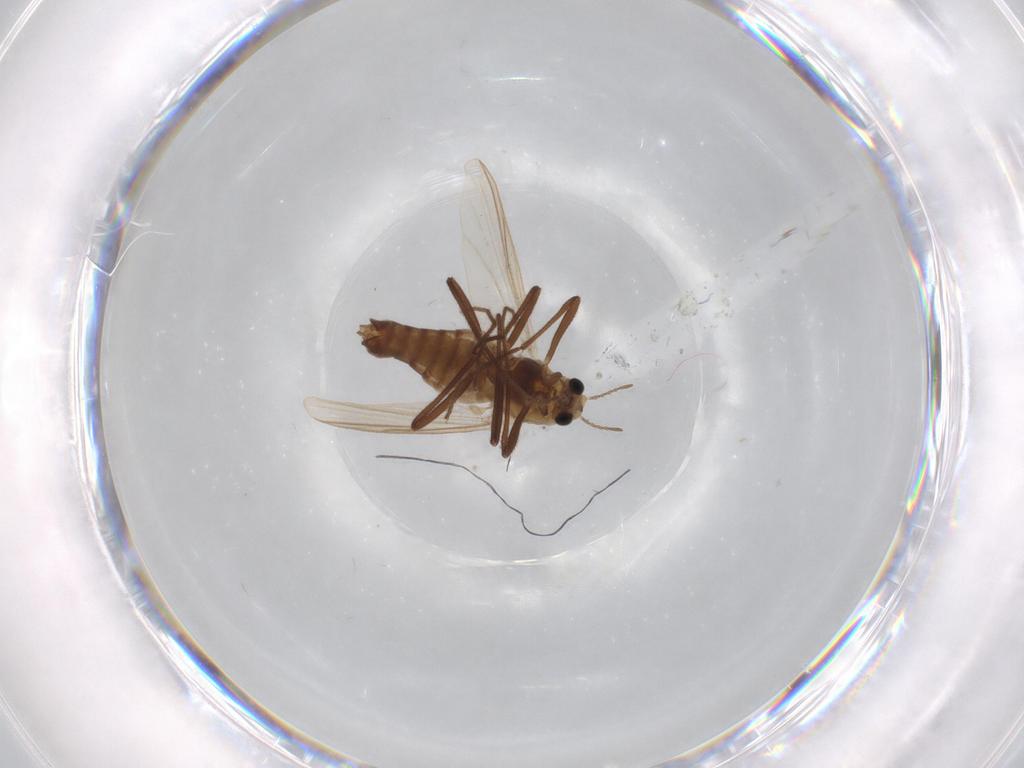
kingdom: Animalia
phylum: Arthropoda
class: Insecta
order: Diptera
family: Chironomidae
